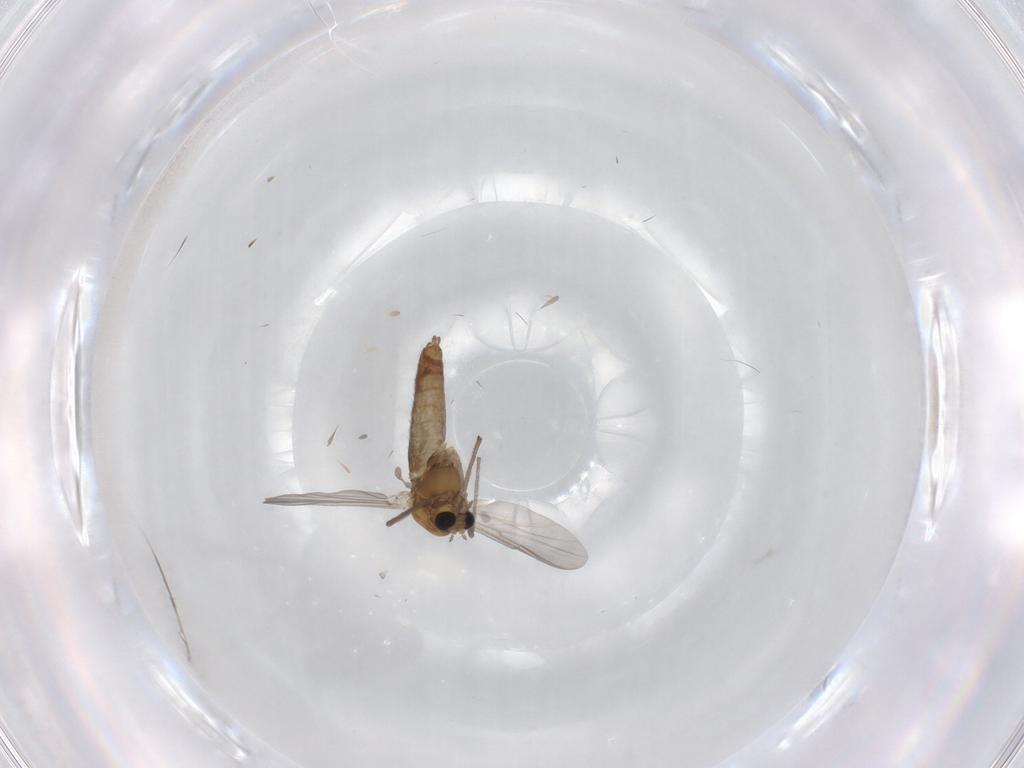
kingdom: Animalia
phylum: Arthropoda
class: Insecta
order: Diptera
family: Chironomidae
